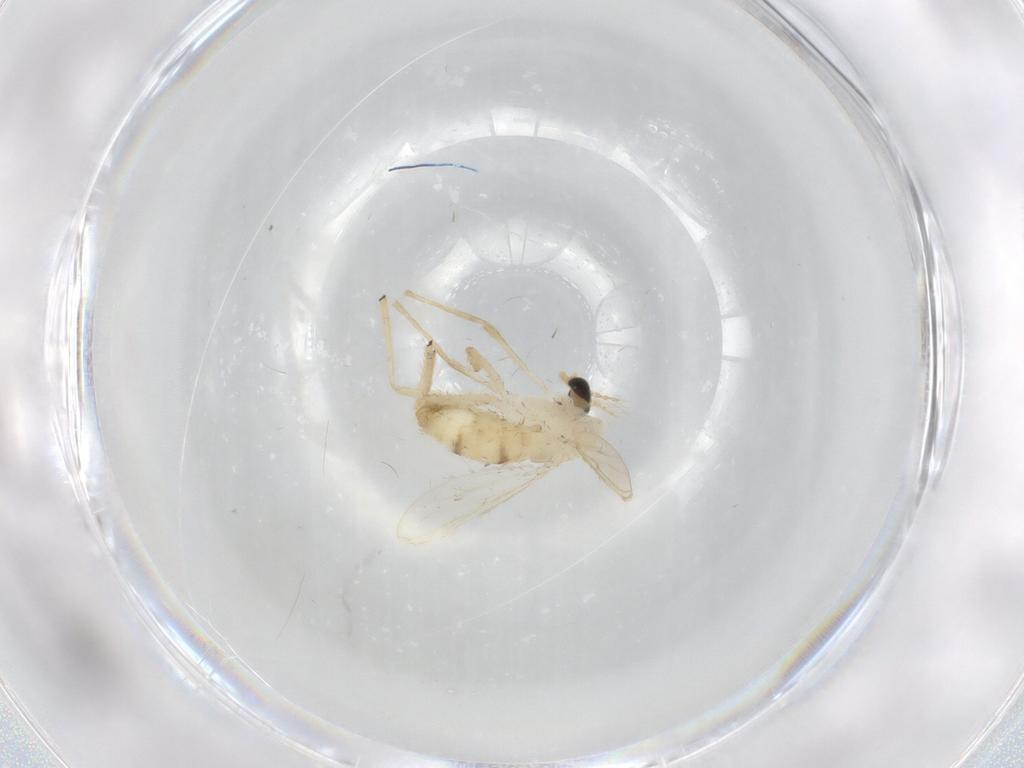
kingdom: Animalia
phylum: Arthropoda
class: Insecta
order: Diptera
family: Chironomidae
